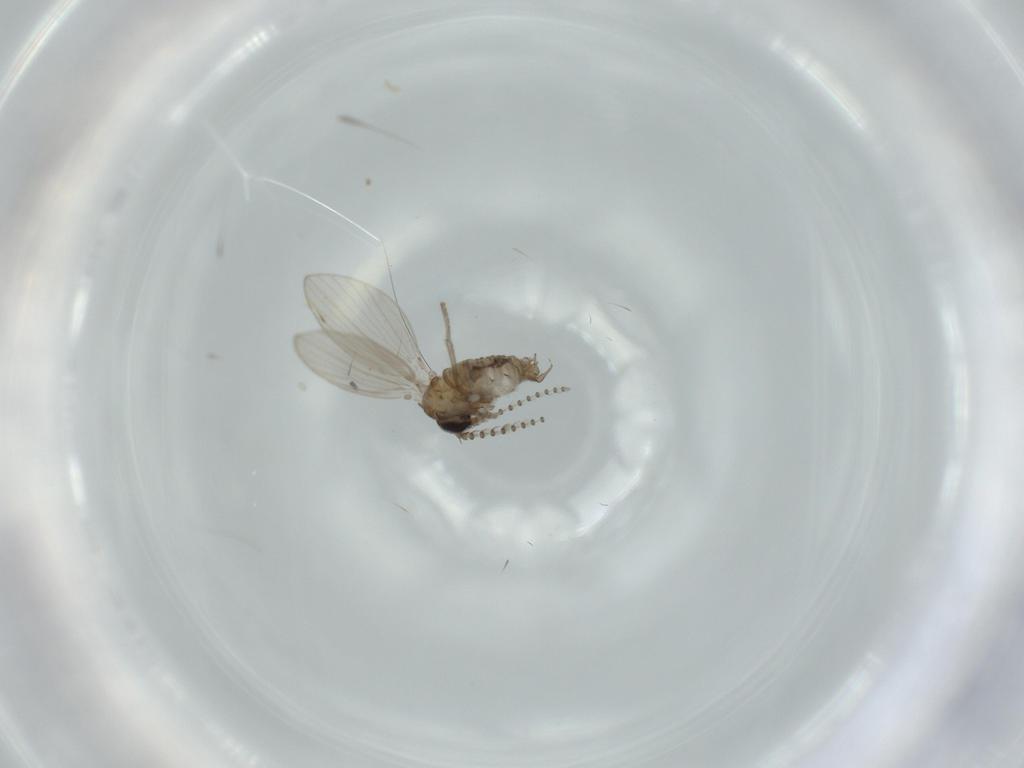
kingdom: Animalia
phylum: Arthropoda
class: Insecta
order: Diptera
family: Sphaeroceridae
